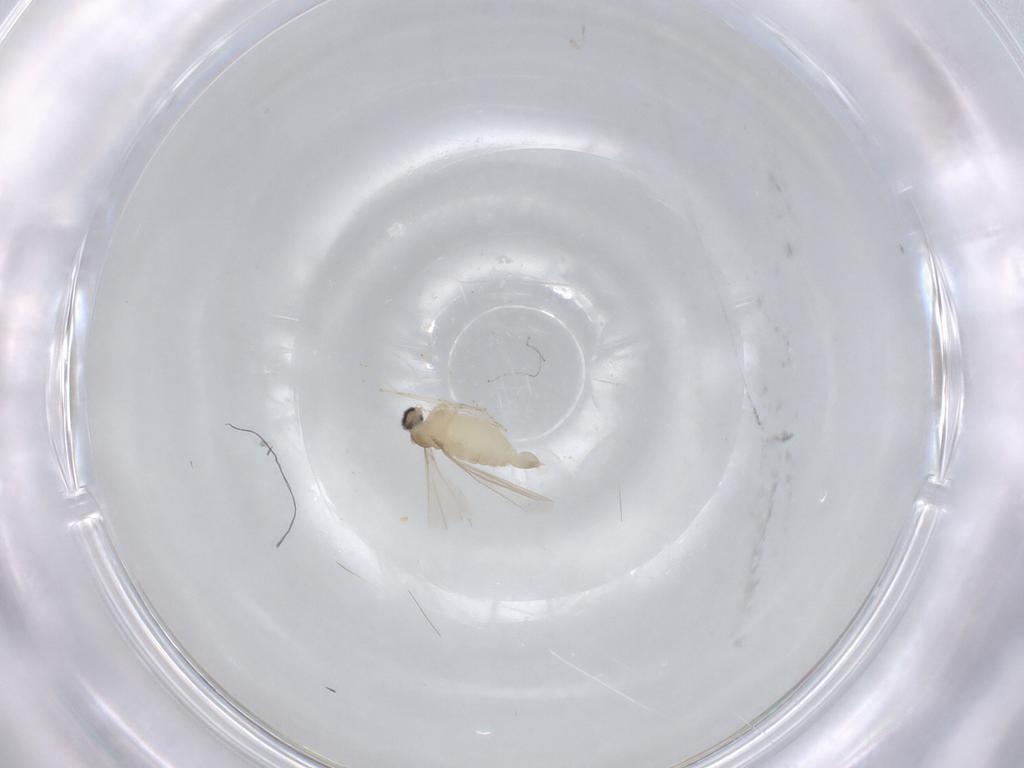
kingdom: Animalia
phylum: Arthropoda
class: Insecta
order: Diptera
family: Cecidomyiidae
